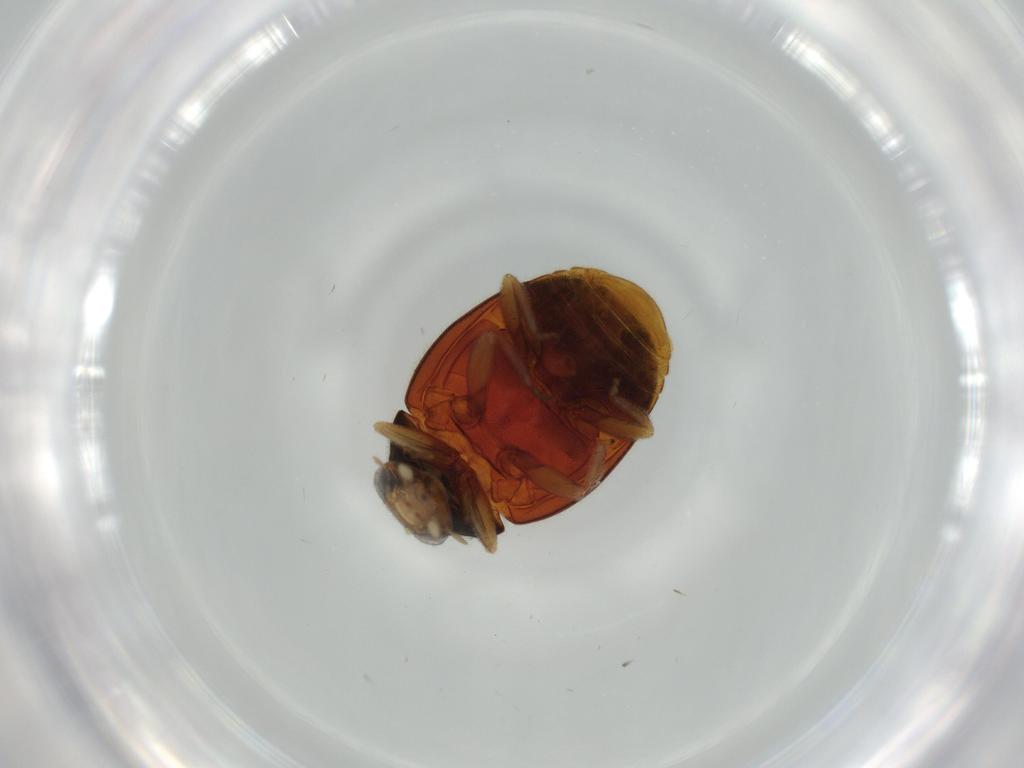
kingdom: Animalia
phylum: Arthropoda
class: Insecta
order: Coleoptera
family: Coccinellidae
